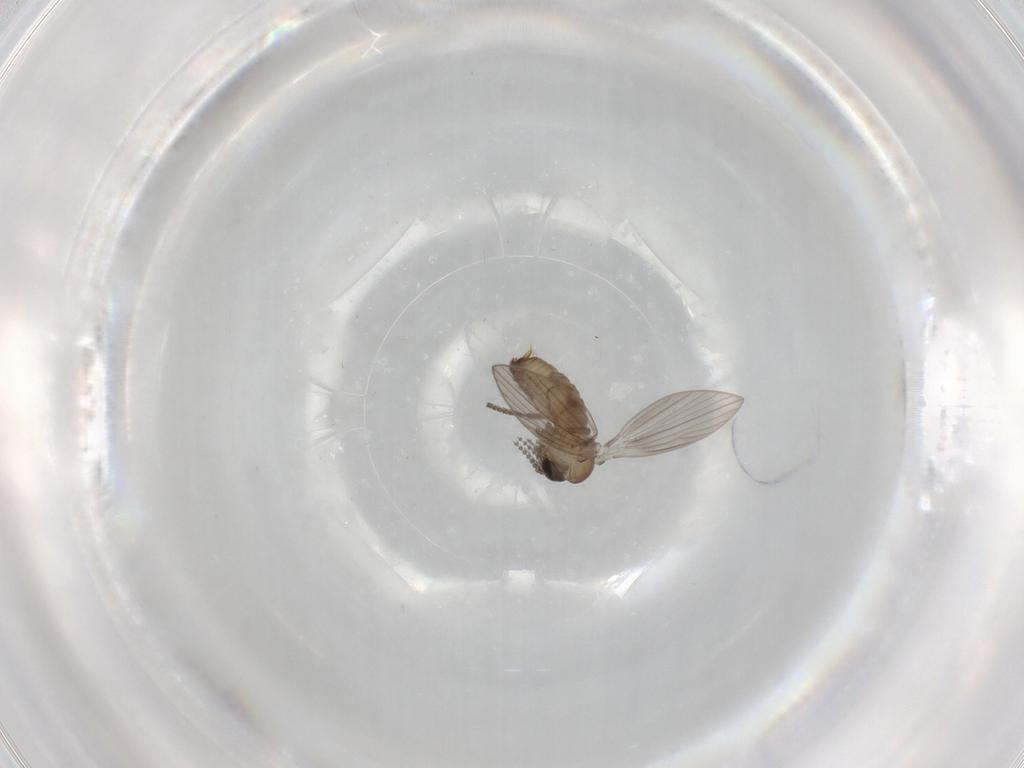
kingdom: Animalia
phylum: Arthropoda
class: Insecta
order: Diptera
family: Psychodidae
